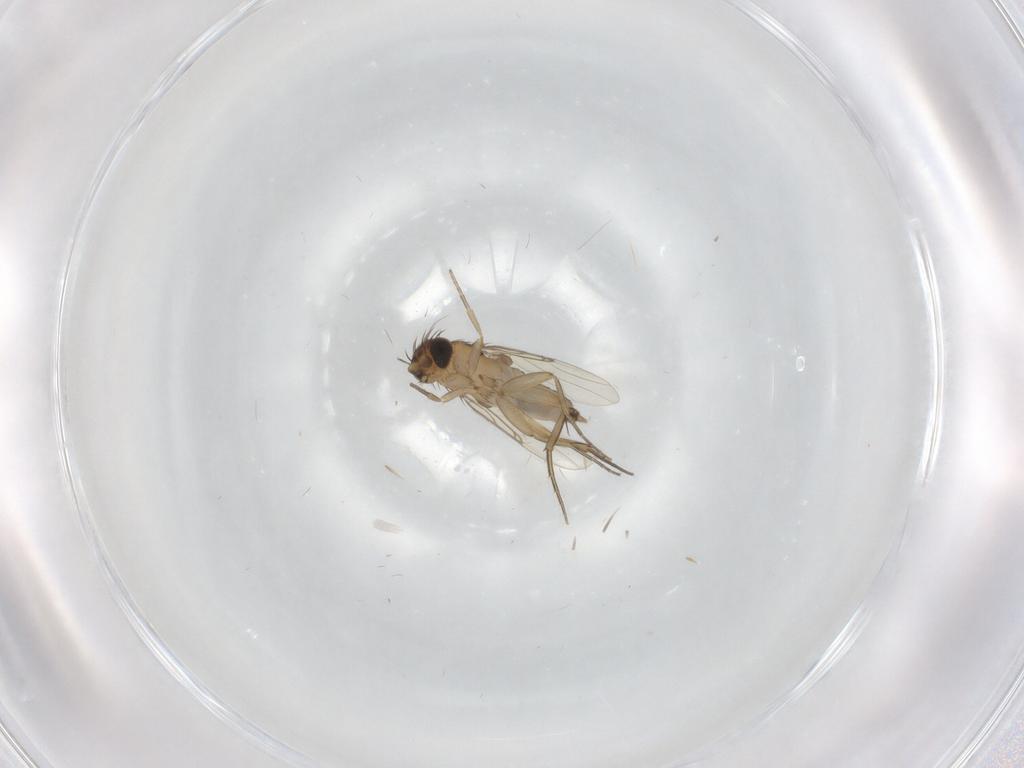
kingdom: Animalia
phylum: Arthropoda
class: Insecta
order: Diptera
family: Phoridae
